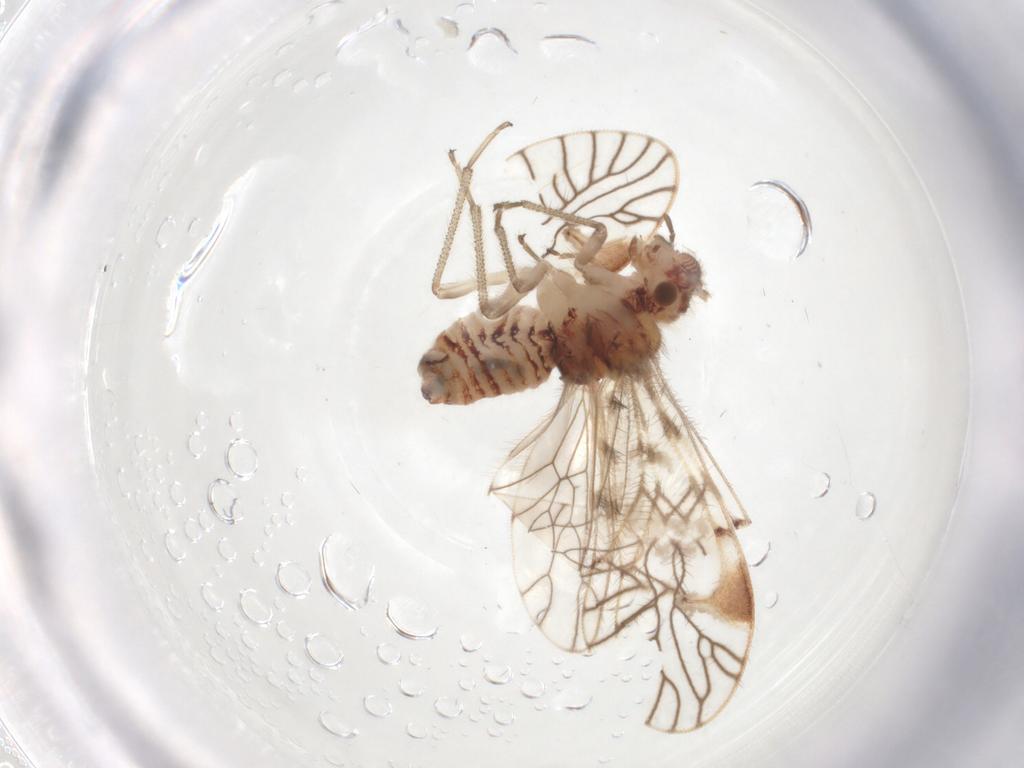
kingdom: Animalia
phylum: Arthropoda
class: Insecta
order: Psocodea
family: Amphipsocidae
